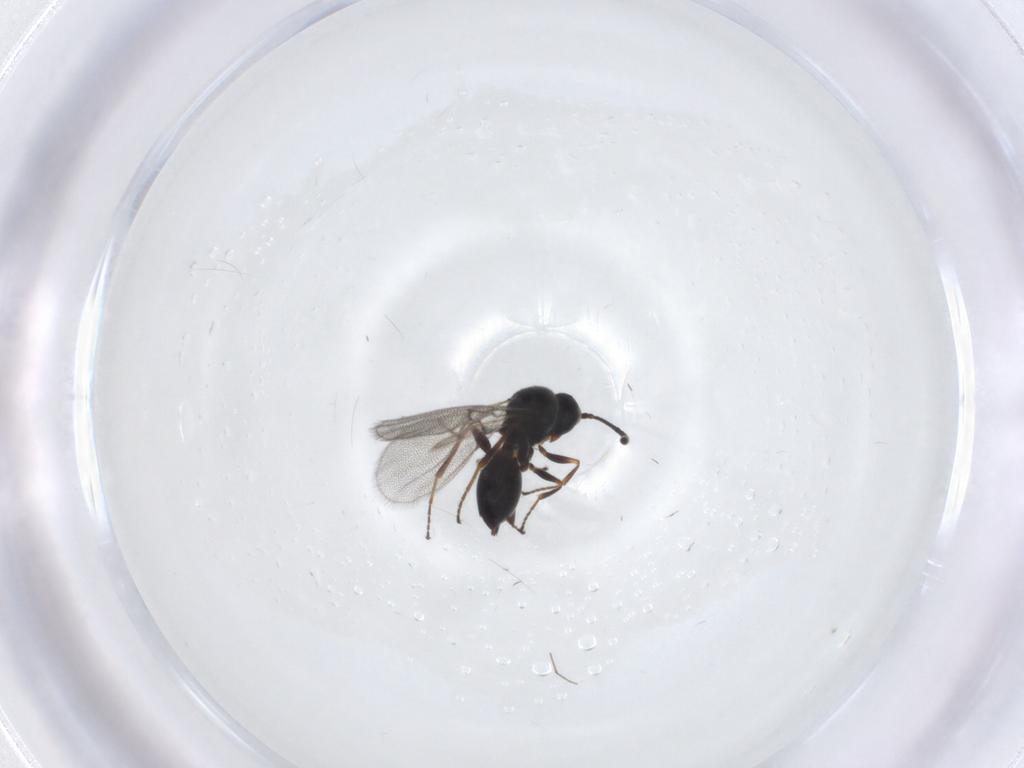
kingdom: Animalia
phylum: Arthropoda
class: Insecta
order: Hymenoptera
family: Figitidae
